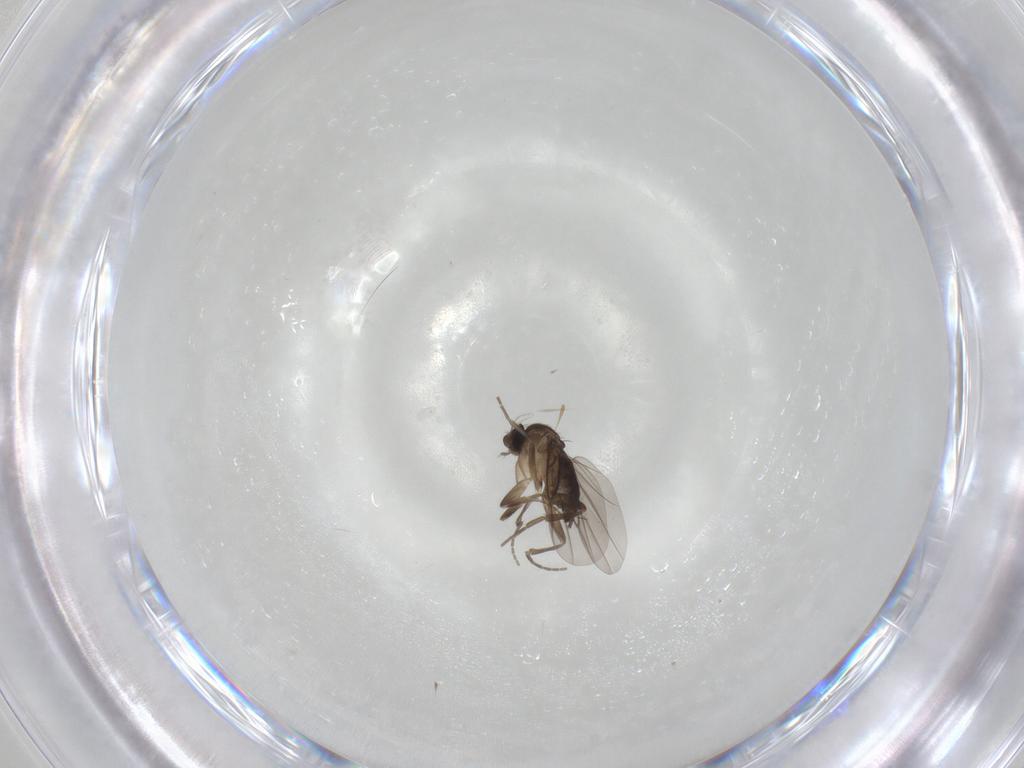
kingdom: Animalia
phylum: Arthropoda
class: Insecta
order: Diptera
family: Phoridae
